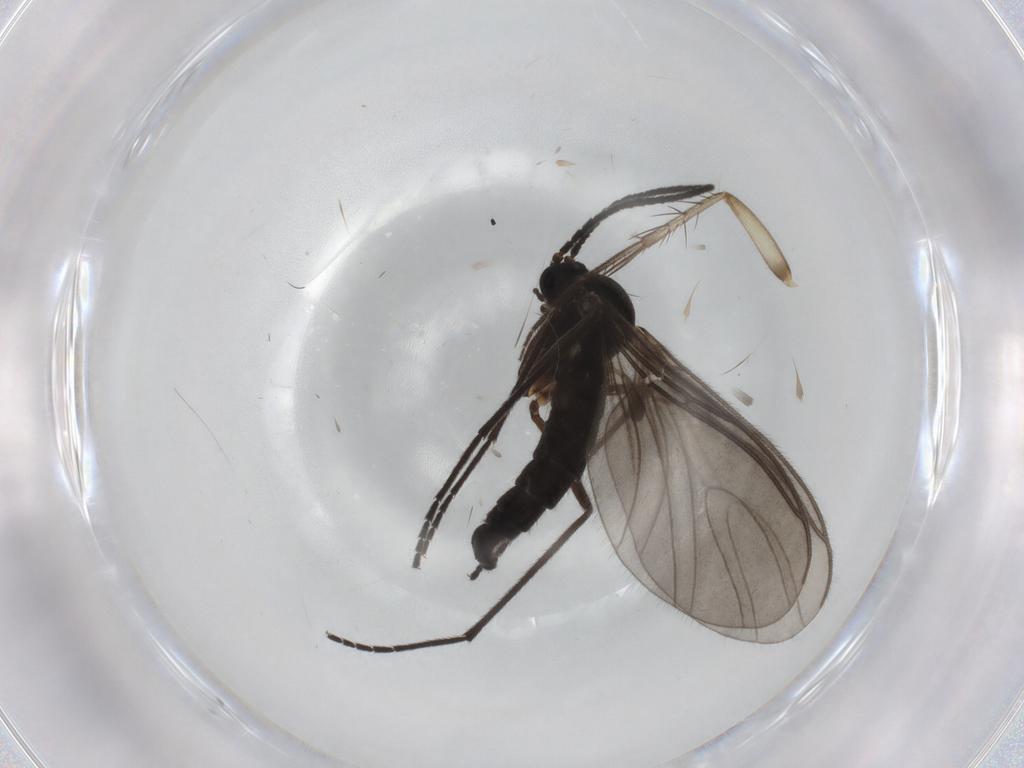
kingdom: Animalia
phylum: Arthropoda
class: Insecta
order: Diptera
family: Sciaridae
